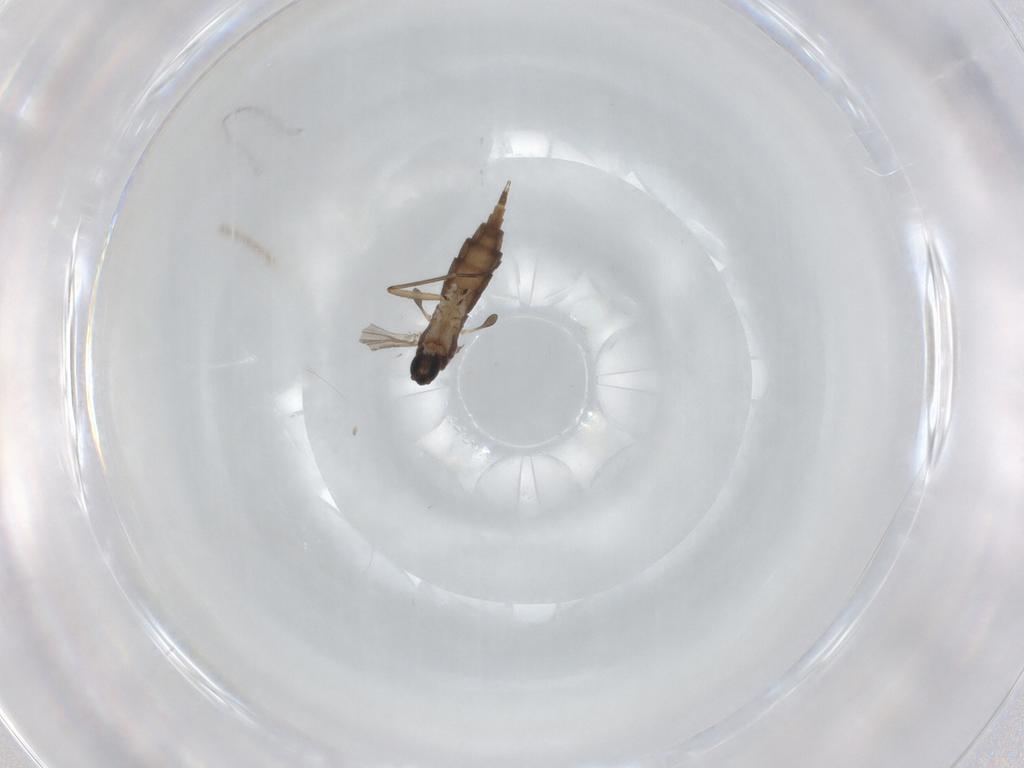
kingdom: Animalia
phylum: Arthropoda
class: Insecta
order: Diptera
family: Sciaridae
